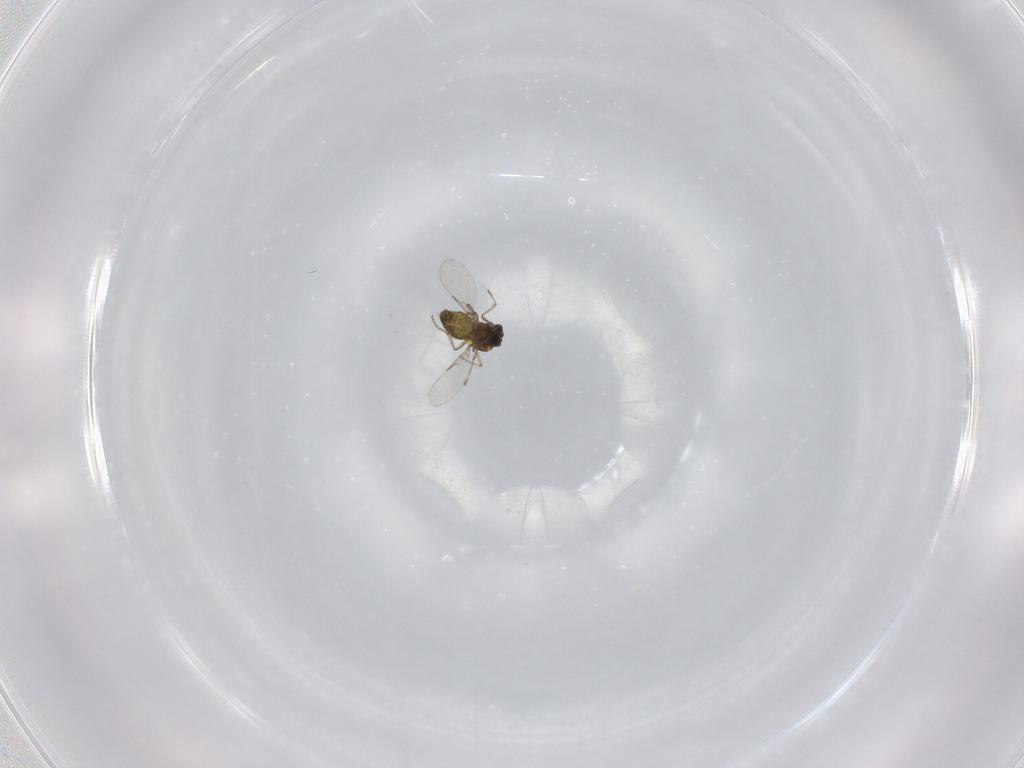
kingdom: Animalia
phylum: Arthropoda
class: Insecta
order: Diptera
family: Ceratopogonidae
